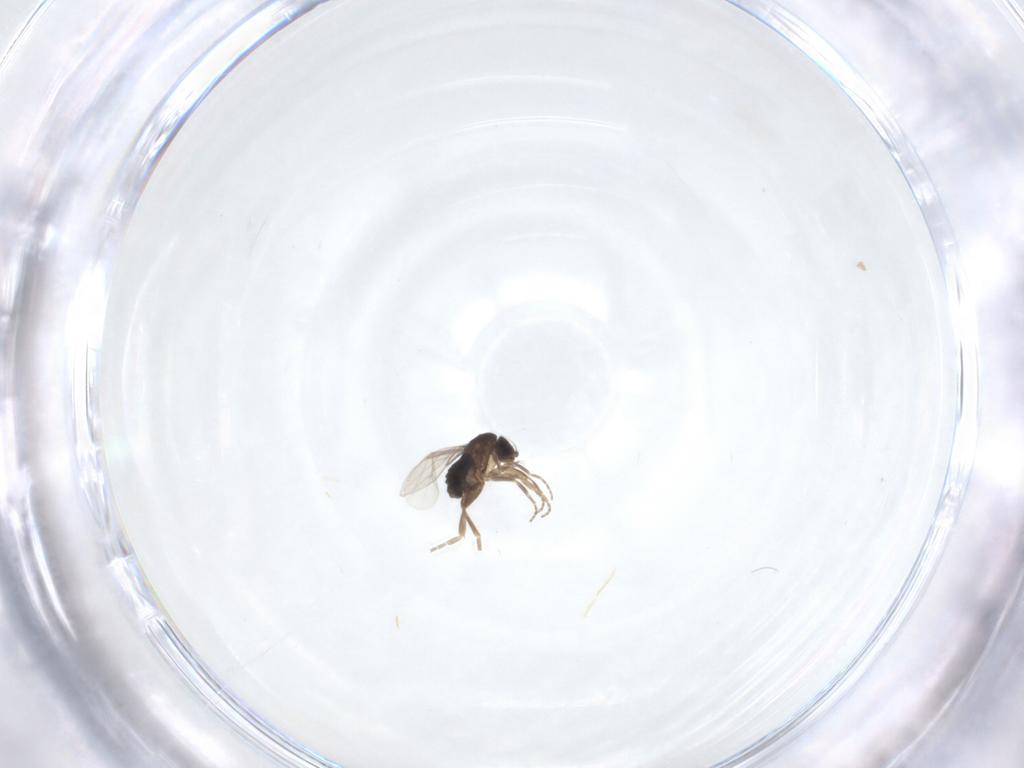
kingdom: Animalia
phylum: Arthropoda
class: Insecta
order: Diptera
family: Phoridae
